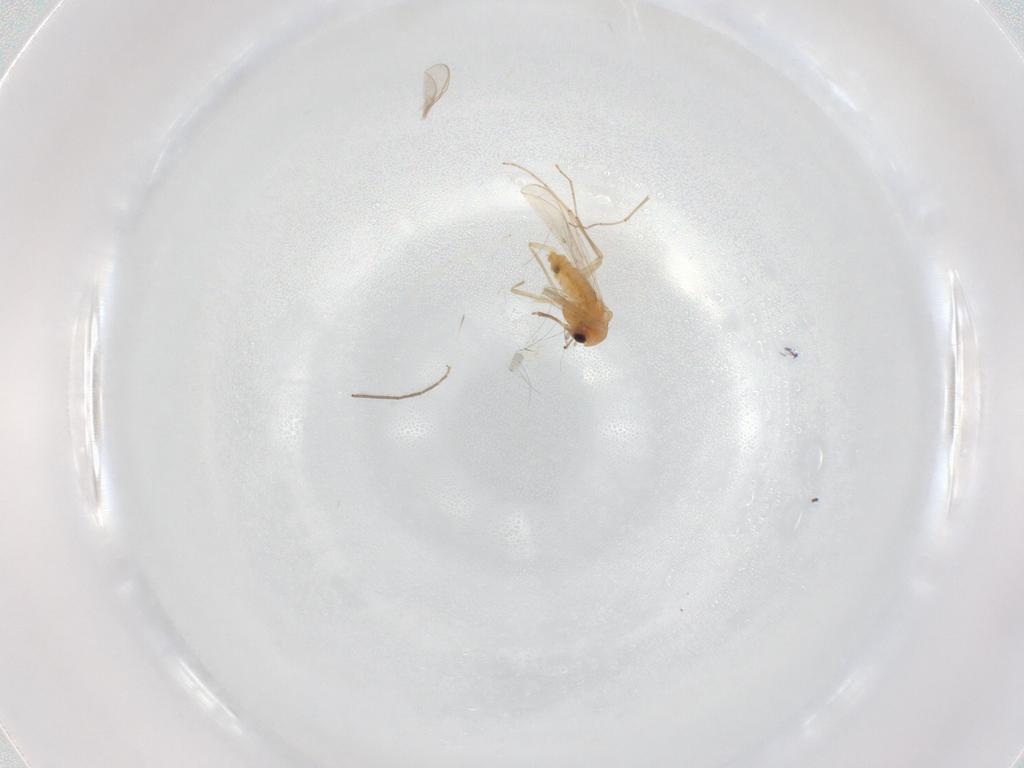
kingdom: Animalia
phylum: Arthropoda
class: Insecta
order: Diptera
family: Chironomidae
